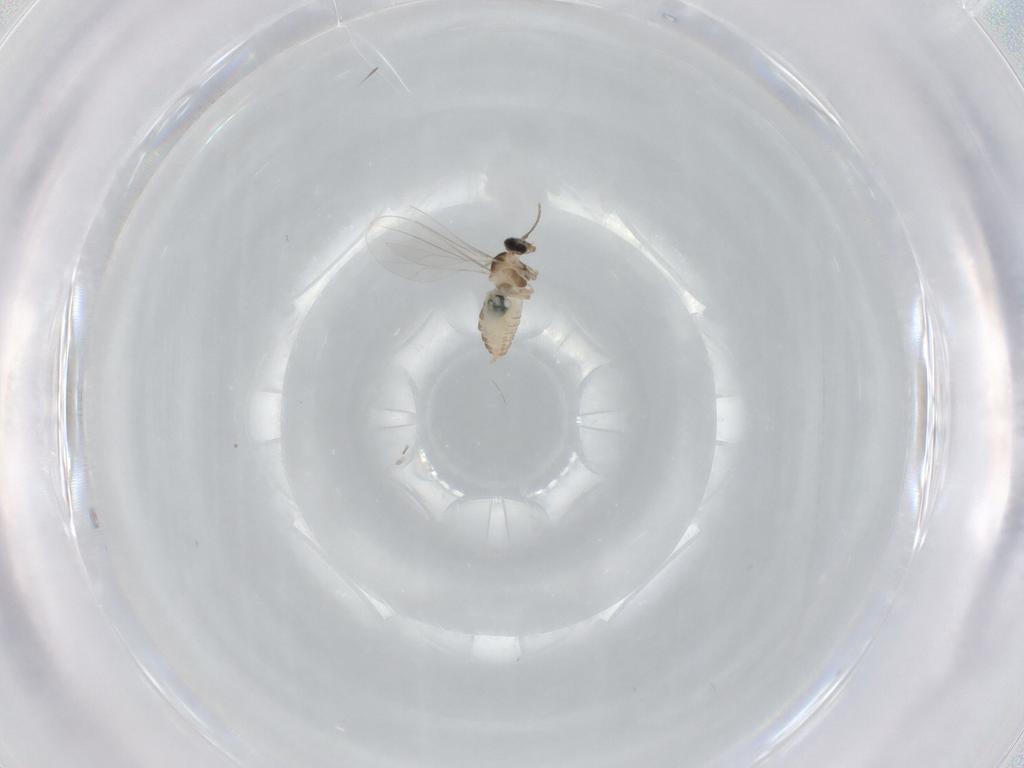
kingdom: Animalia
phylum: Arthropoda
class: Insecta
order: Diptera
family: Cecidomyiidae
